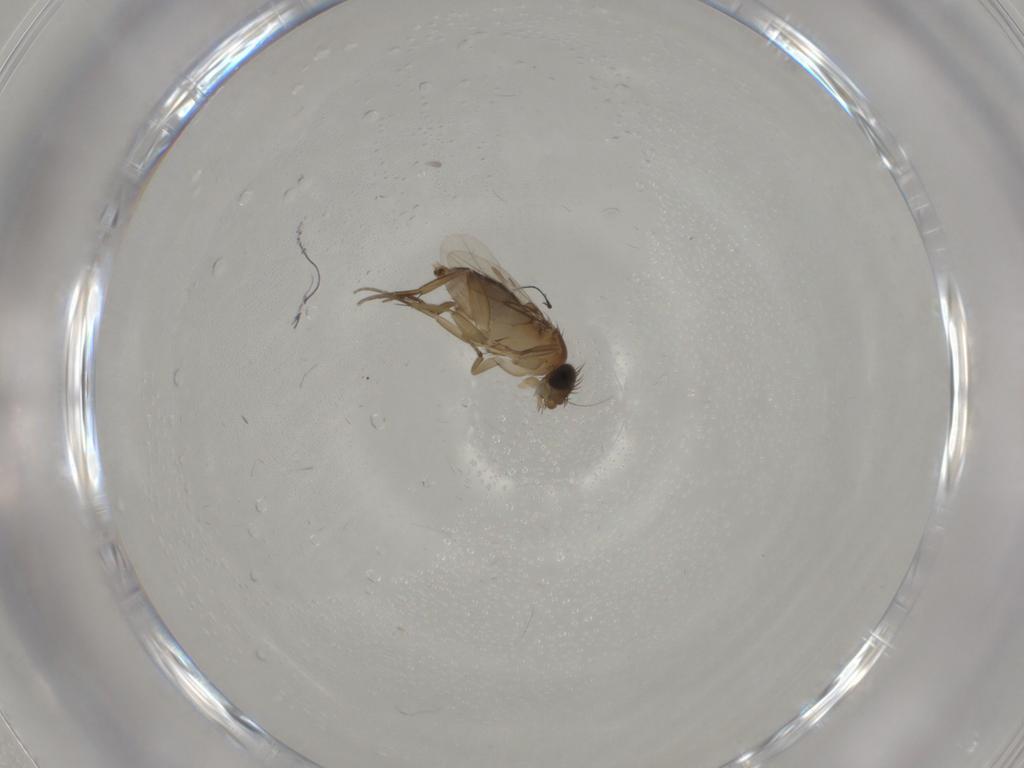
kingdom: Animalia
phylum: Arthropoda
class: Insecta
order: Diptera
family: Phoridae
